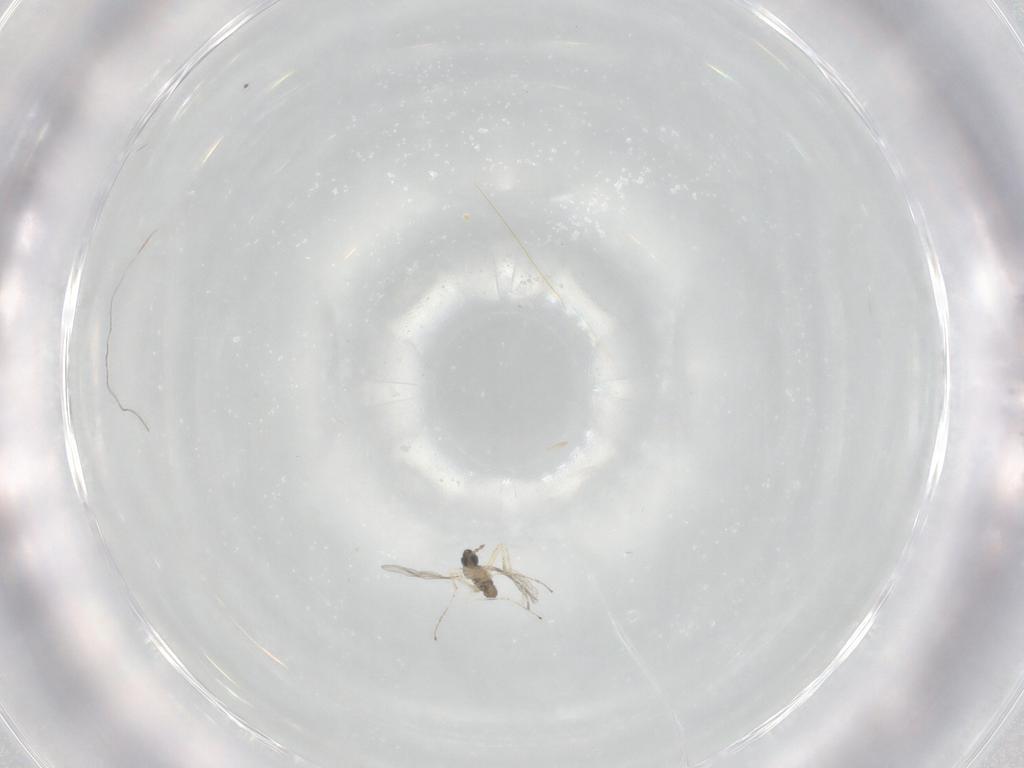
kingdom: Animalia
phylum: Arthropoda
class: Insecta
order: Diptera
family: Cecidomyiidae
